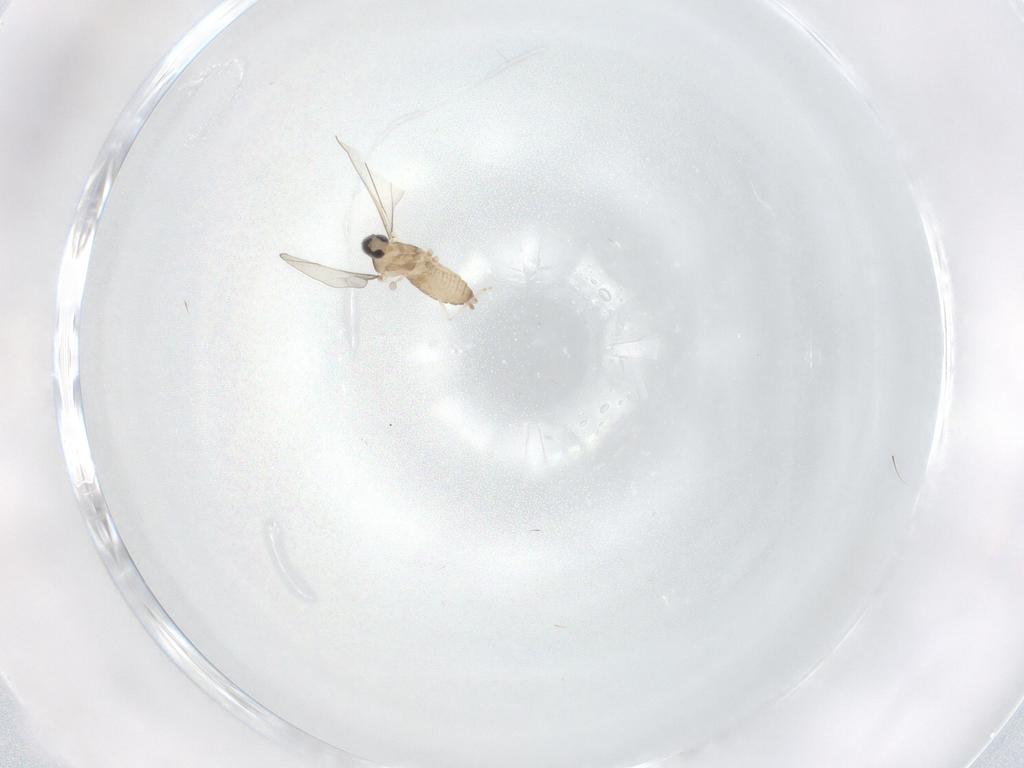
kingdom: Animalia
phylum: Arthropoda
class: Insecta
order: Diptera
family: Cecidomyiidae
